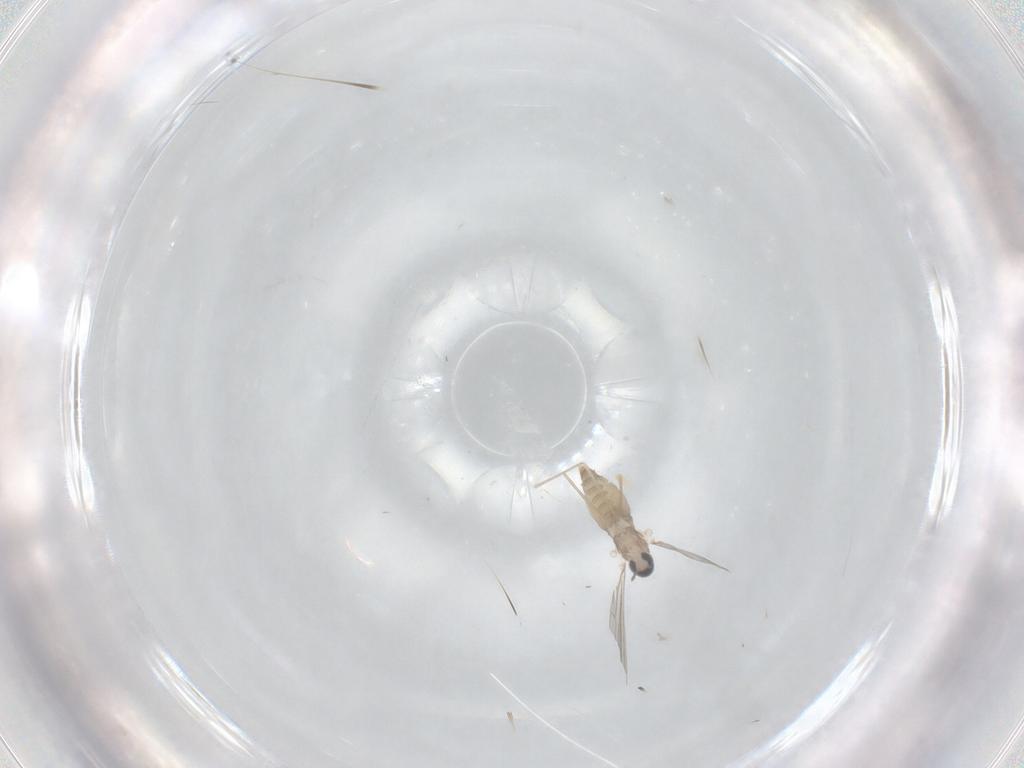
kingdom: Animalia
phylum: Arthropoda
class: Insecta
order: Diptera
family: Cecidomyiidae
